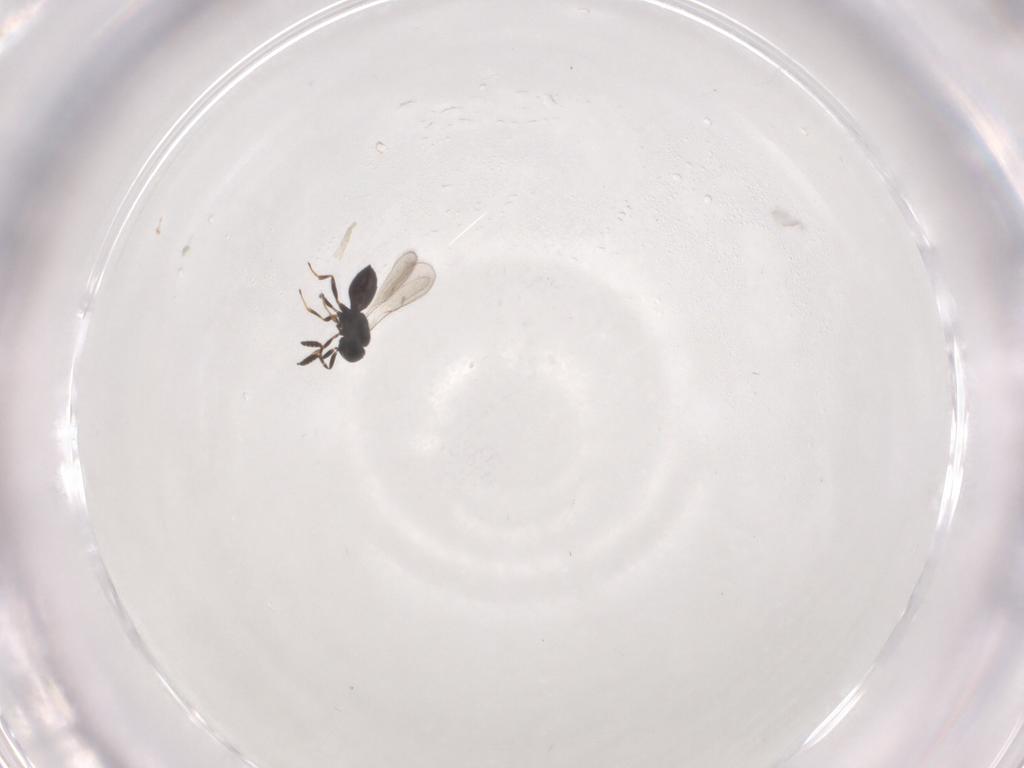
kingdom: Animalia
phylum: Arthropoda
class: Insecta
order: Hymenoptera
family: Scelionidae
